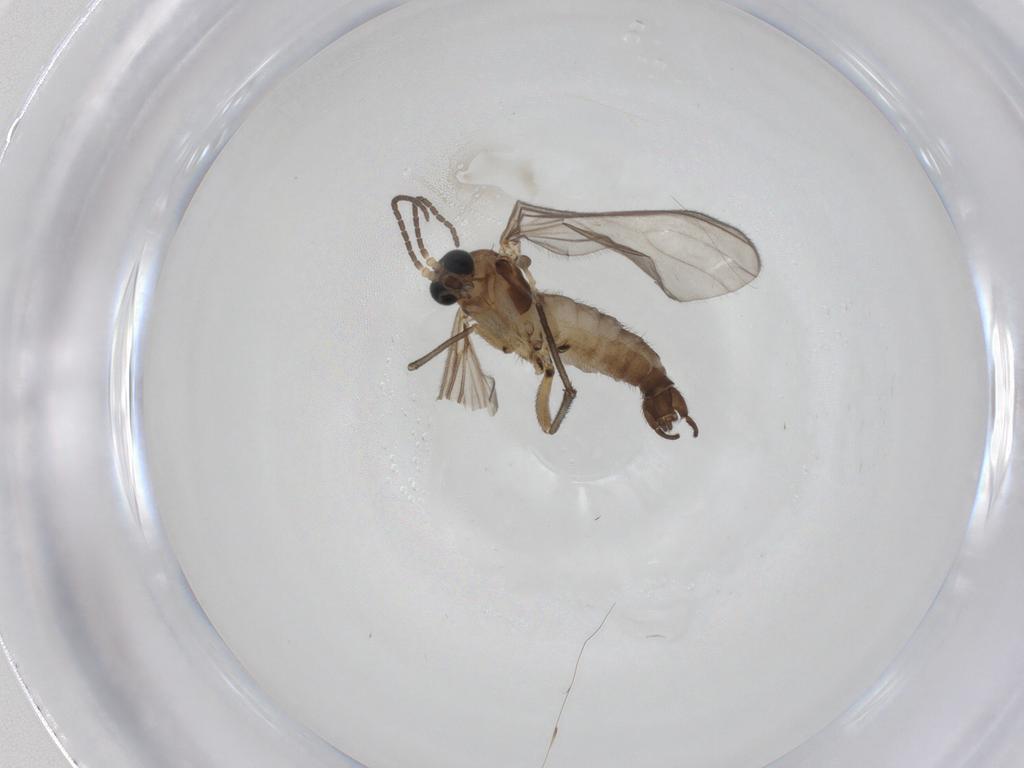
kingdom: Animalia
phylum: Arthropoda
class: Insecta
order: Diptera
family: Sciaridae
